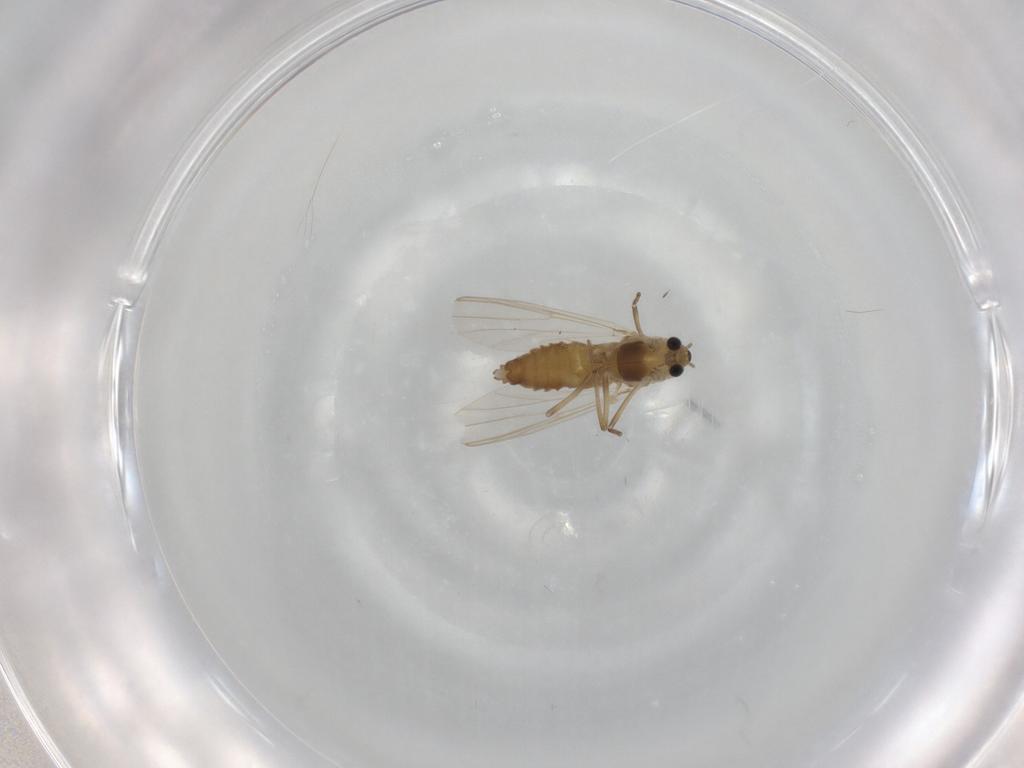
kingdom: Animalia
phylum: Arthropoda
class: Insecta
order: Diptera
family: Chironomidae
